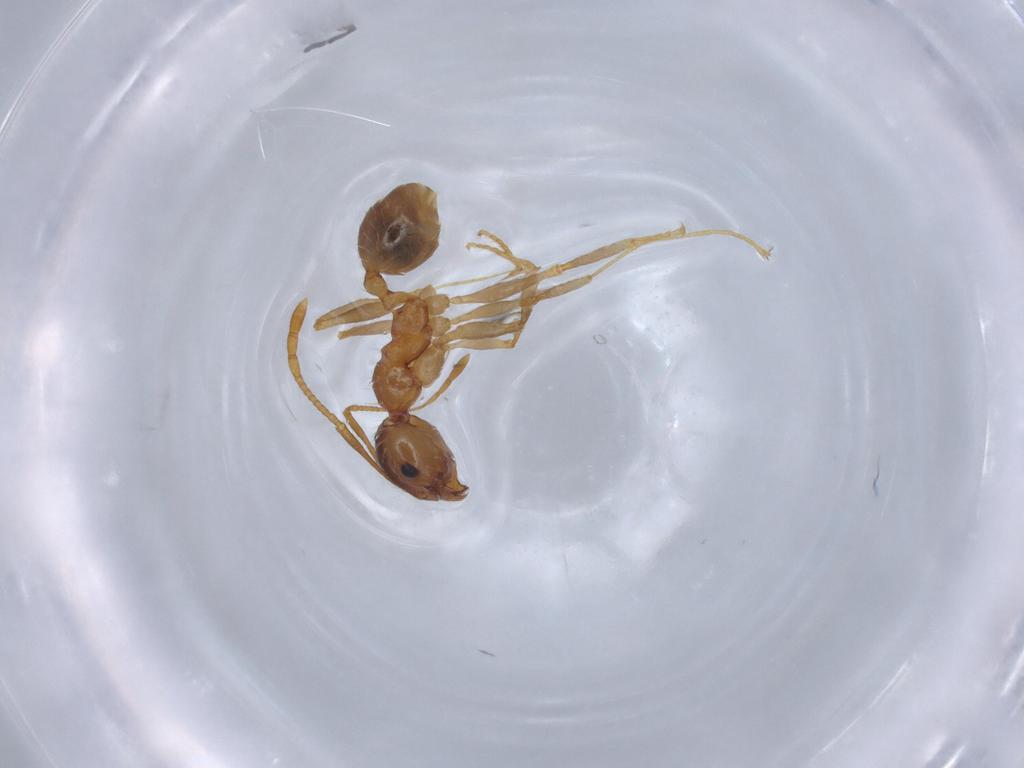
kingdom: Animalia
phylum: Arthropoda
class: Insecta
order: Hymenoptera
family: Formicidae
